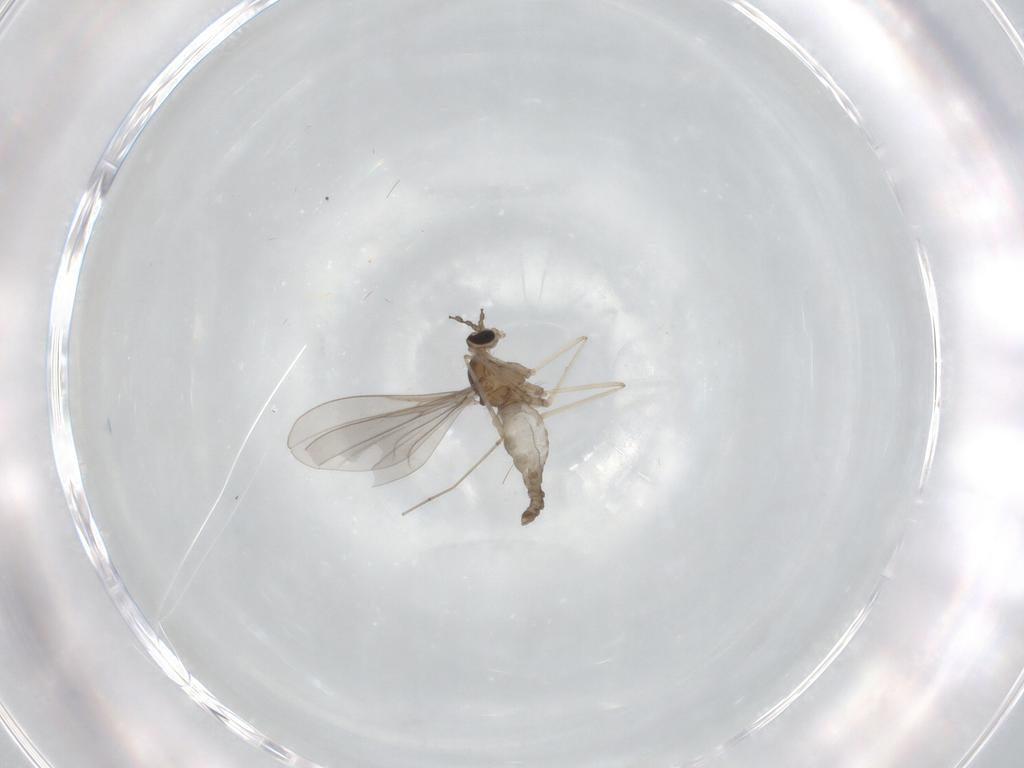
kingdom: Animalia
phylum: Arthropoda
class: Insecta
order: Diptera
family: Cecidomyiidae
